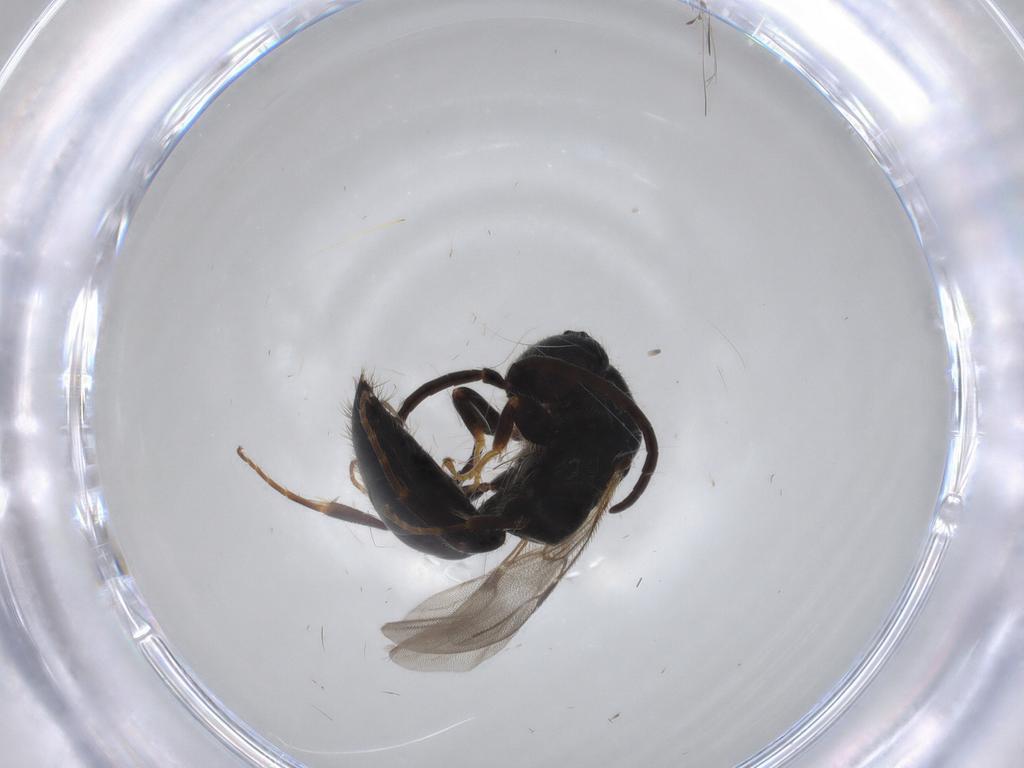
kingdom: Animalia
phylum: Arthropoda
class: Insecta
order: Hymenoptera
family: Bethylidae
